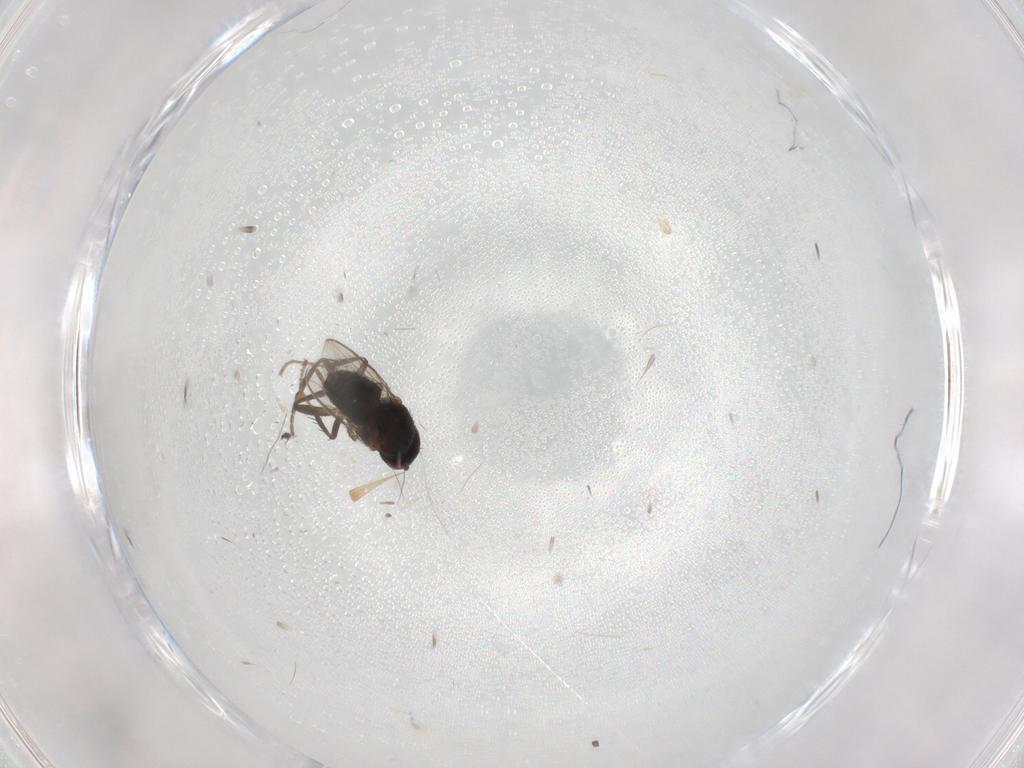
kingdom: Animalia
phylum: Arthropoda
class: Insecta
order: Diptera
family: Sphaeroceridae
